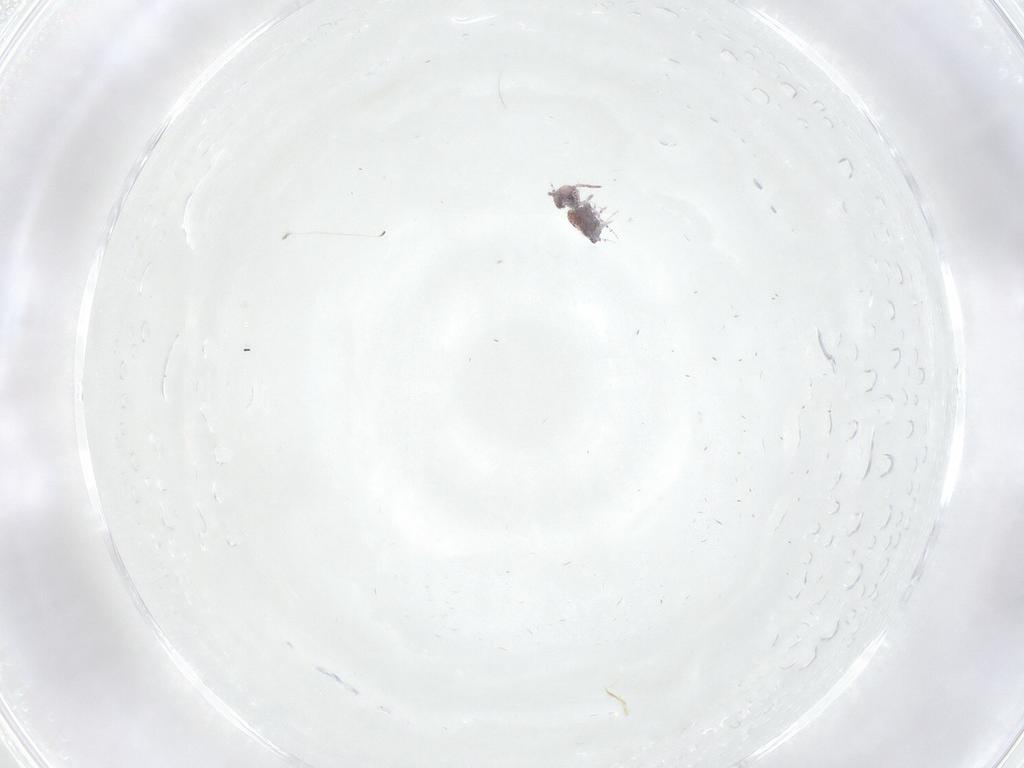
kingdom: Animalia
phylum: Arthropoda
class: Collembola
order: Symphypleona
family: Bourletiellidae
